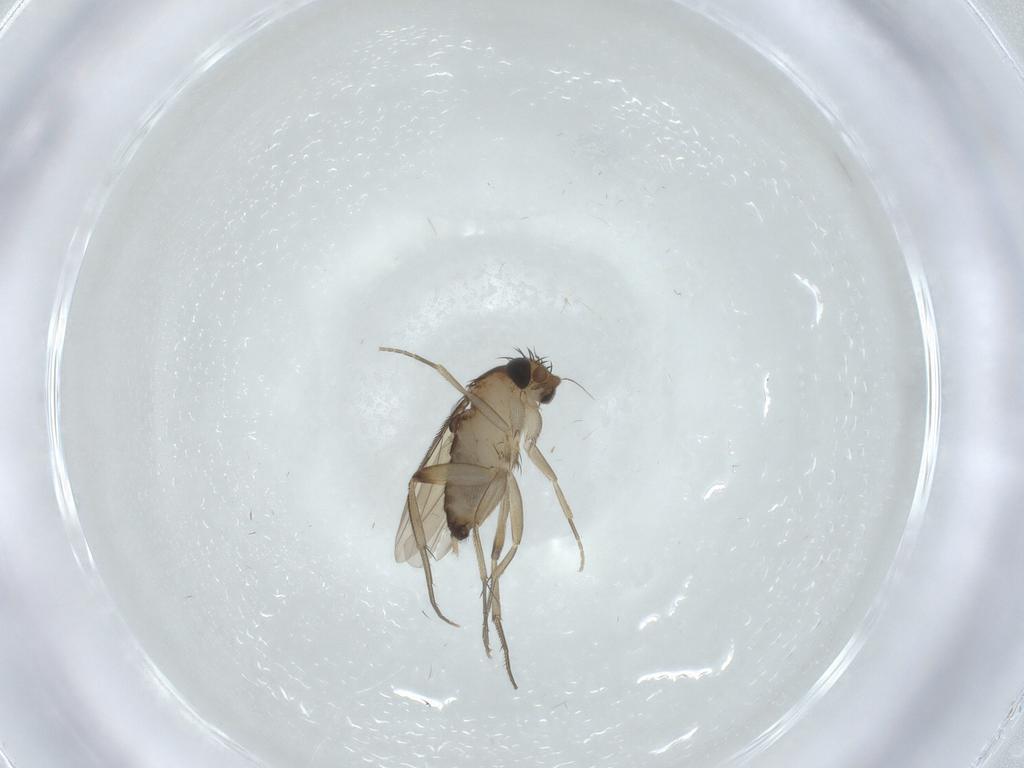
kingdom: Animalia
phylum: Arthropoda
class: Insecta
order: Diptera
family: Phoridae
